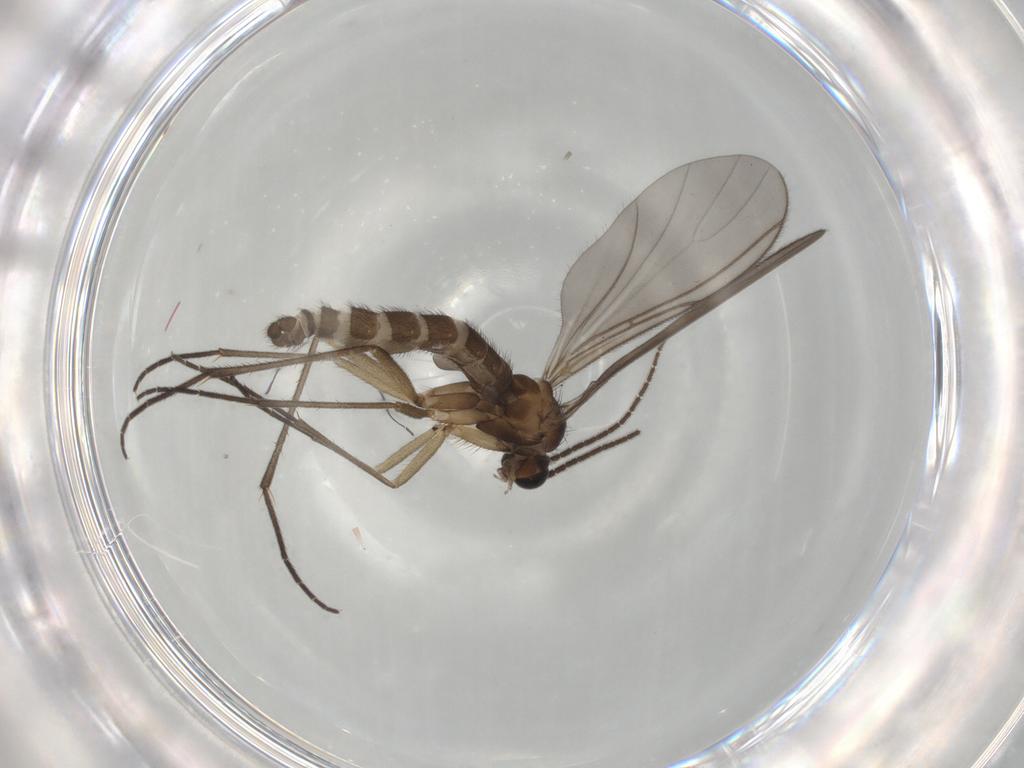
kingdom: Animalia
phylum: Arthropoda
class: Insecta
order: Diptera
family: Sciaridae
